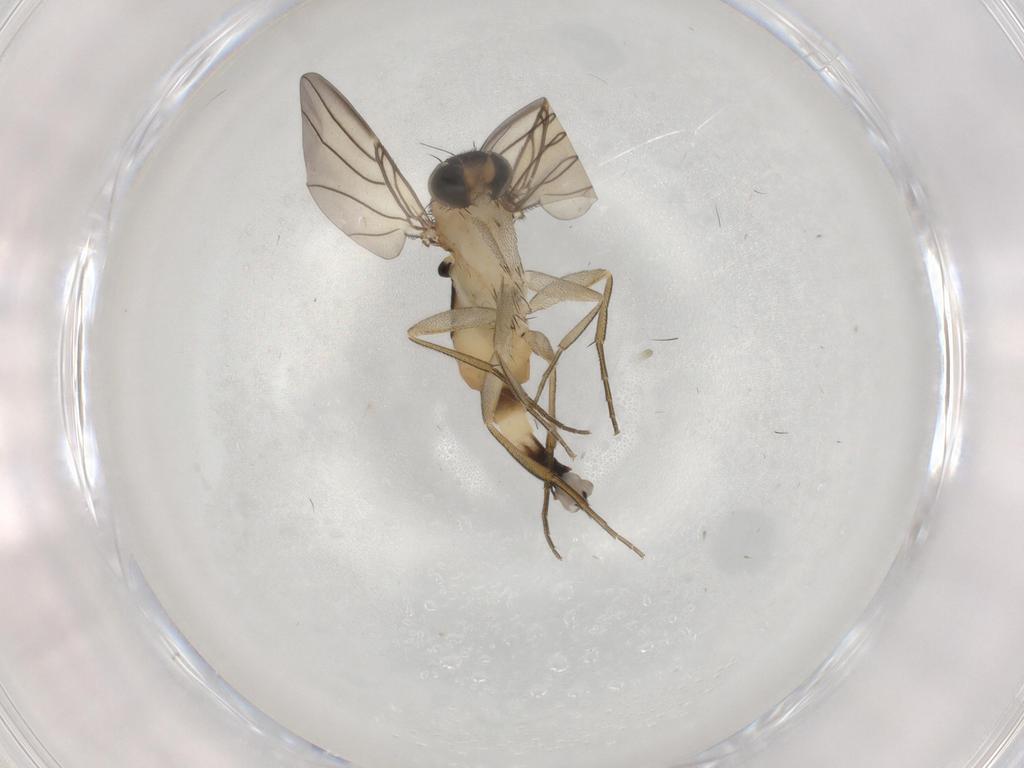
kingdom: Animalia
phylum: Arthropoda
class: Insecta
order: Diptera
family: Phoridae
